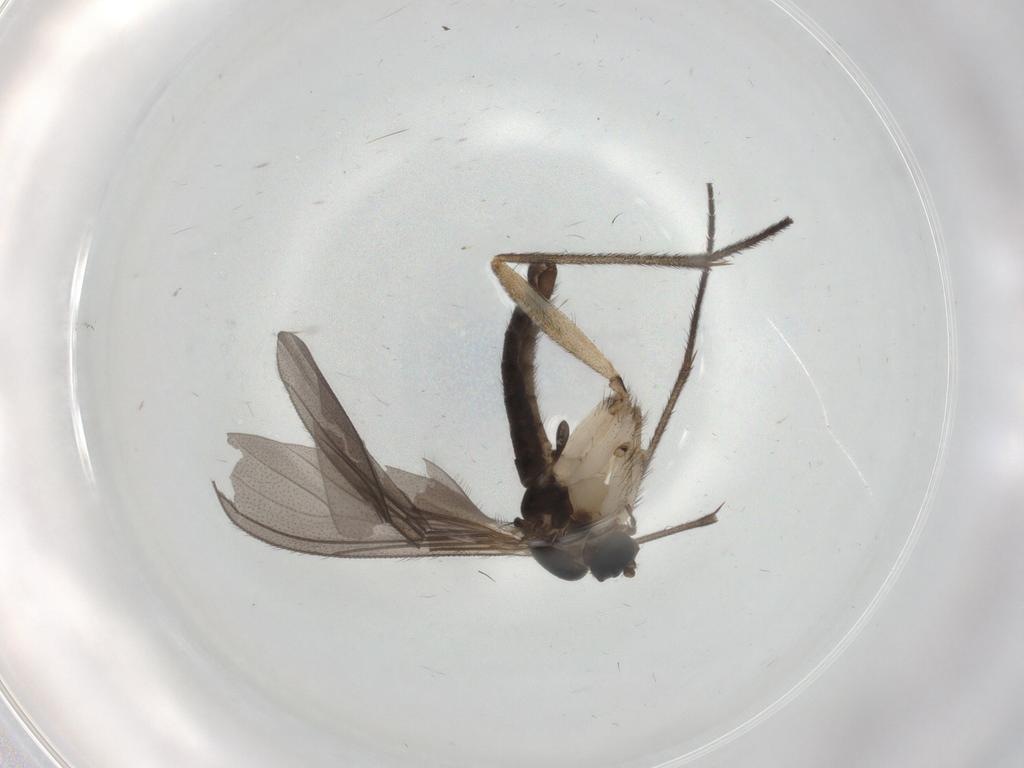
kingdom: Animalia
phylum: Arthropoda
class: Insecta
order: Diptera
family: Sciaridae
